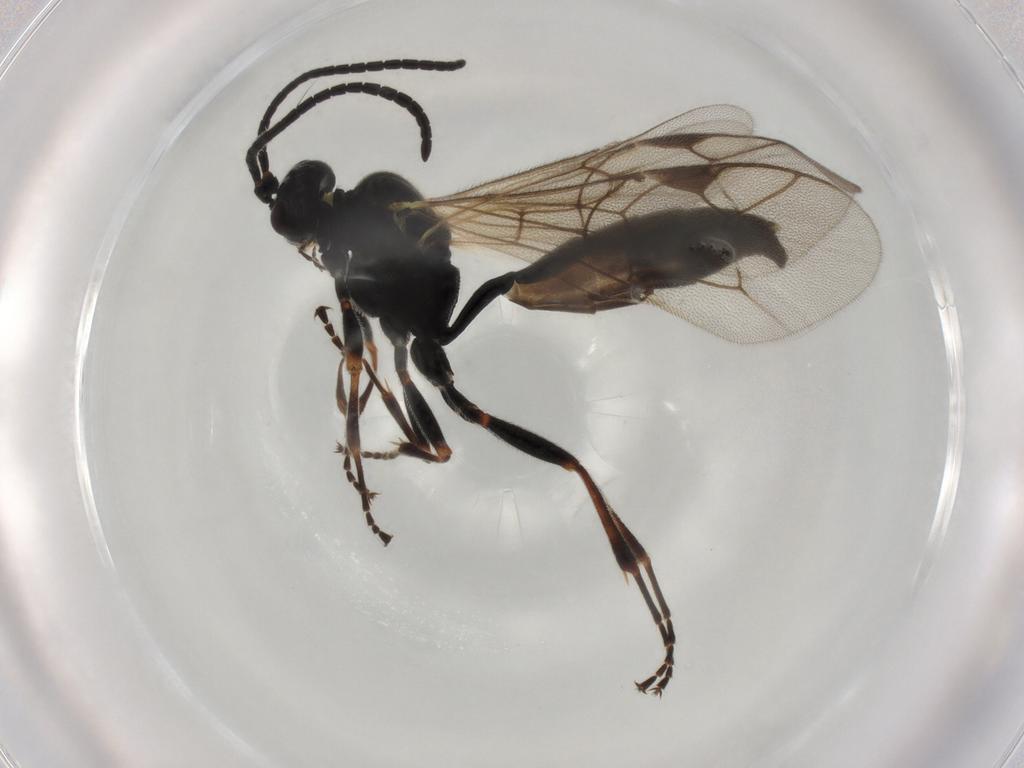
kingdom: Animalia
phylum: Arthropoda
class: Insecta
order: Hymenoptera
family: Ichneumonidae
